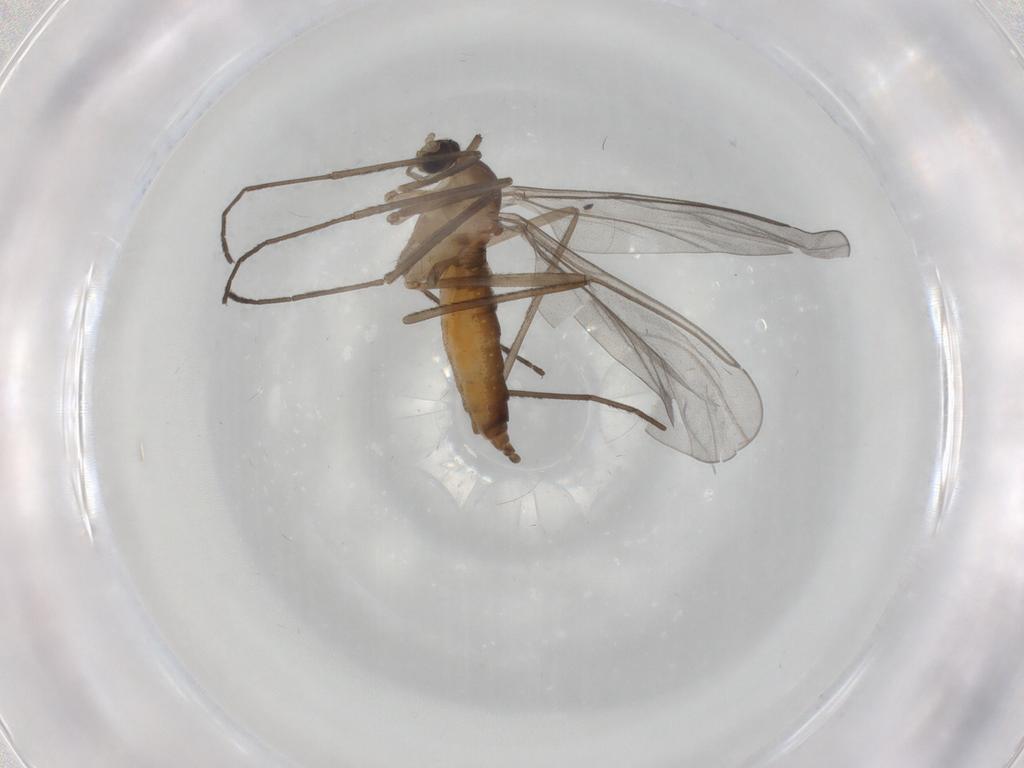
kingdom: Animalia
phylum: Arthropoda
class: Insecta
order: Diptera
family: Cecidomyiidae
